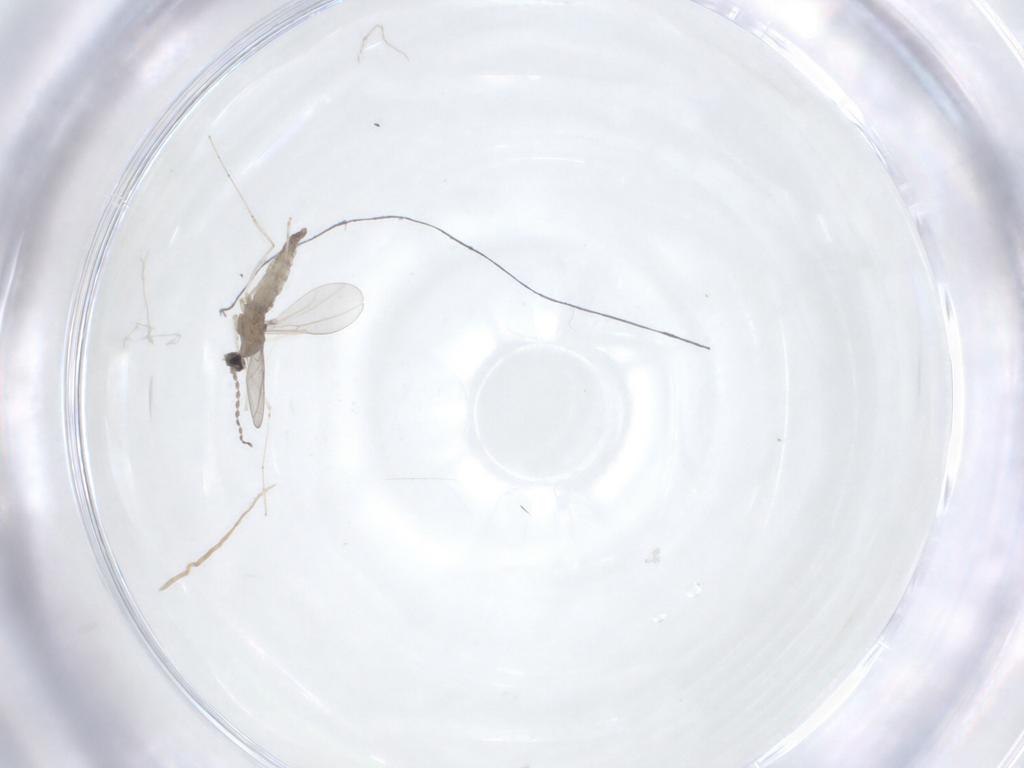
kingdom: Animalia
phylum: Arthropoda
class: Insecta
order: Diptera
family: Cecidomyiidae
